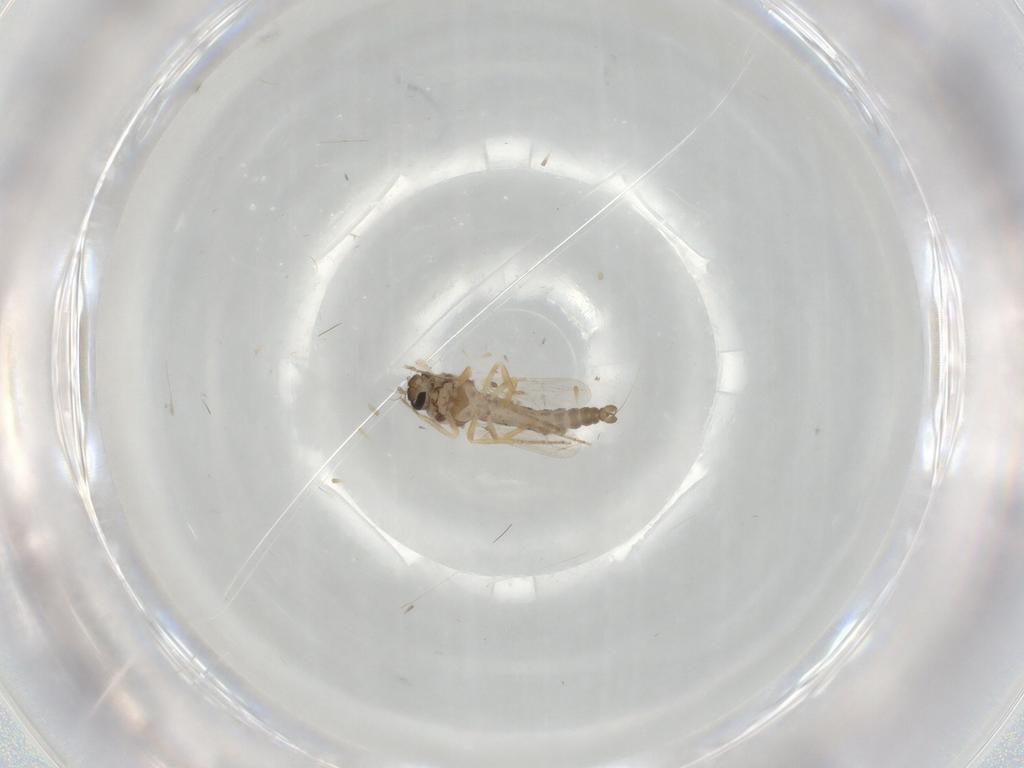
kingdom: Animalia
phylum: Arthropoda
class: Insecta
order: Diptera
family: Ceratopogonidae
